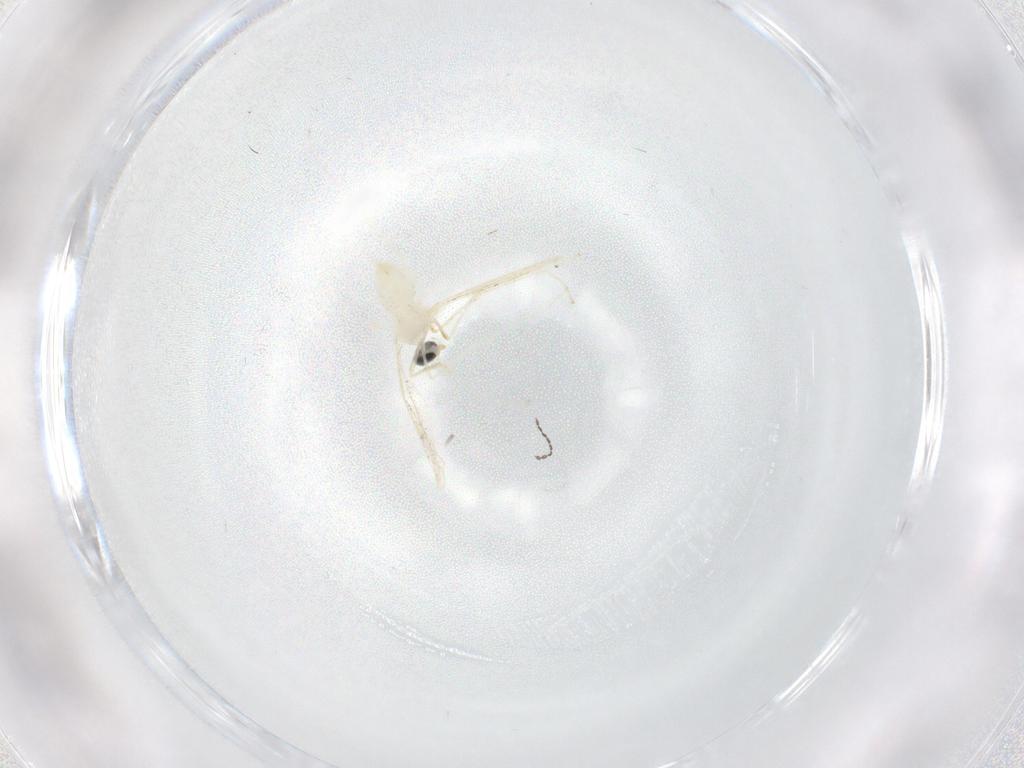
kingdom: Animalia
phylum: Arthropoda
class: Insecta
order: Diptera
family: Cecidomyiidae
